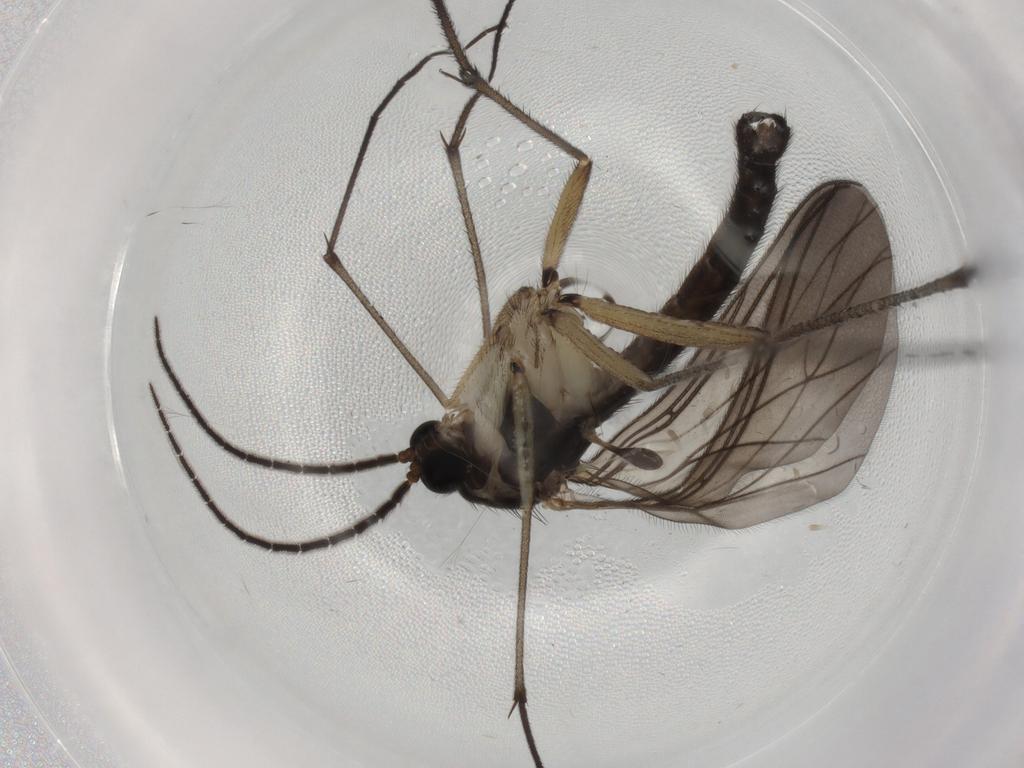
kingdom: Animalia
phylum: Arthropoda
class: Insecta
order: Diptera
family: Sciaridae
